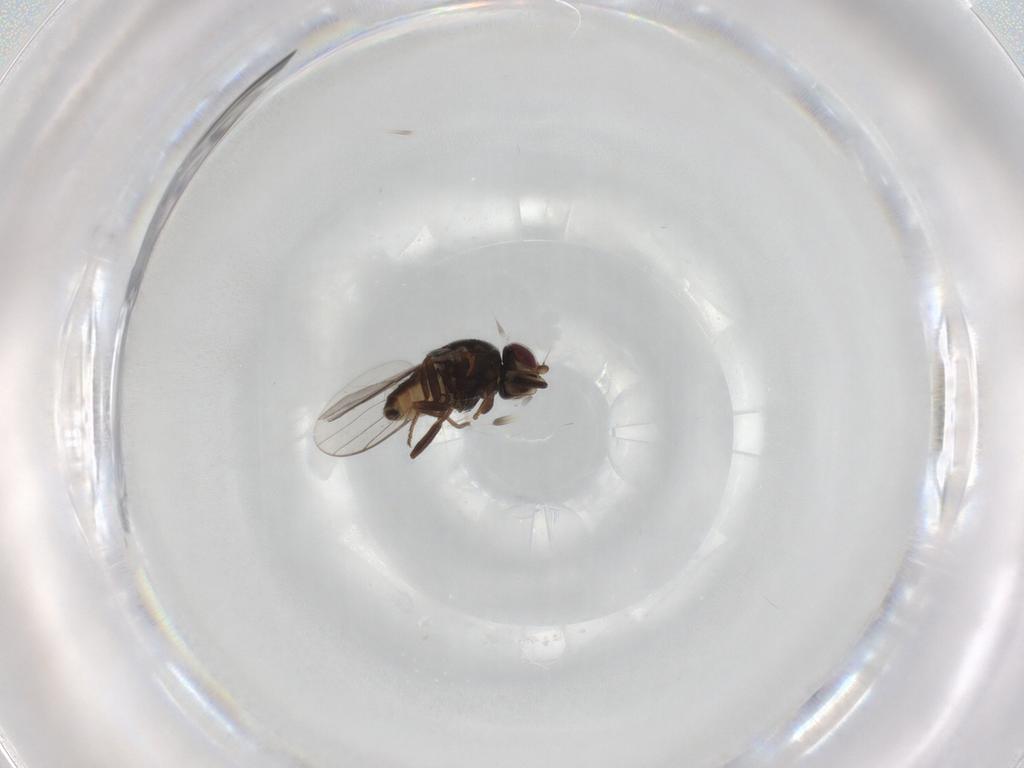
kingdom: Animalia
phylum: Arthropoda
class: Insecta
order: Diptera
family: Chloropidae
